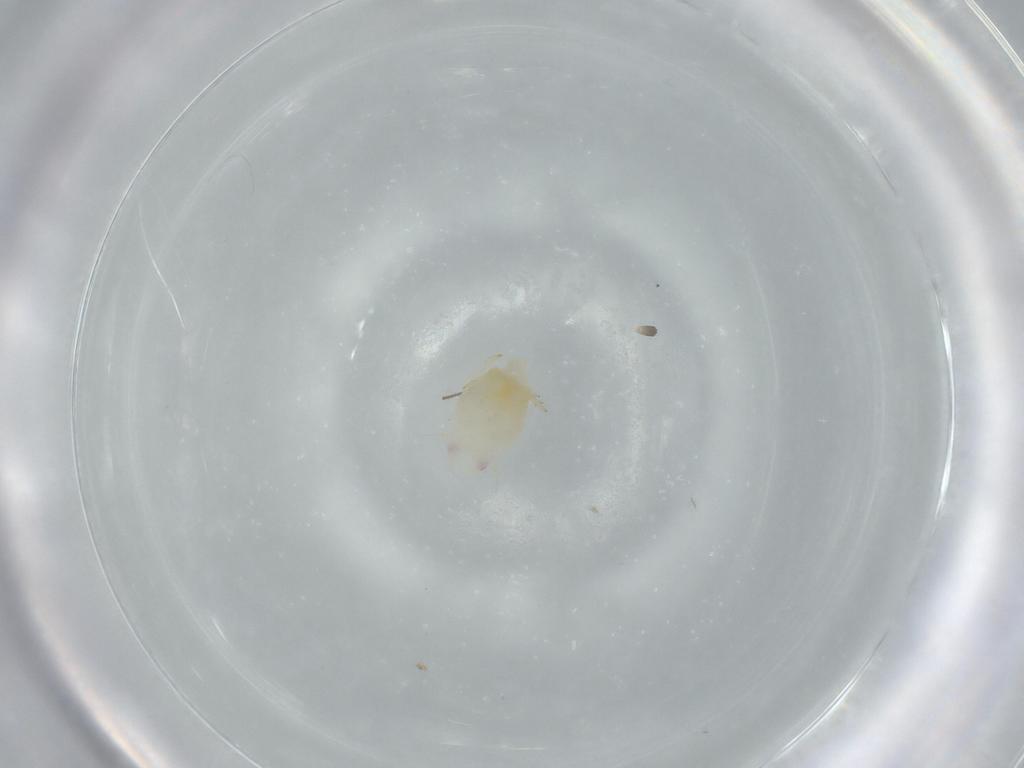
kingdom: Animalia
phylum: Arthropoda
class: Insecta
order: Hemiptera
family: Flatidae
